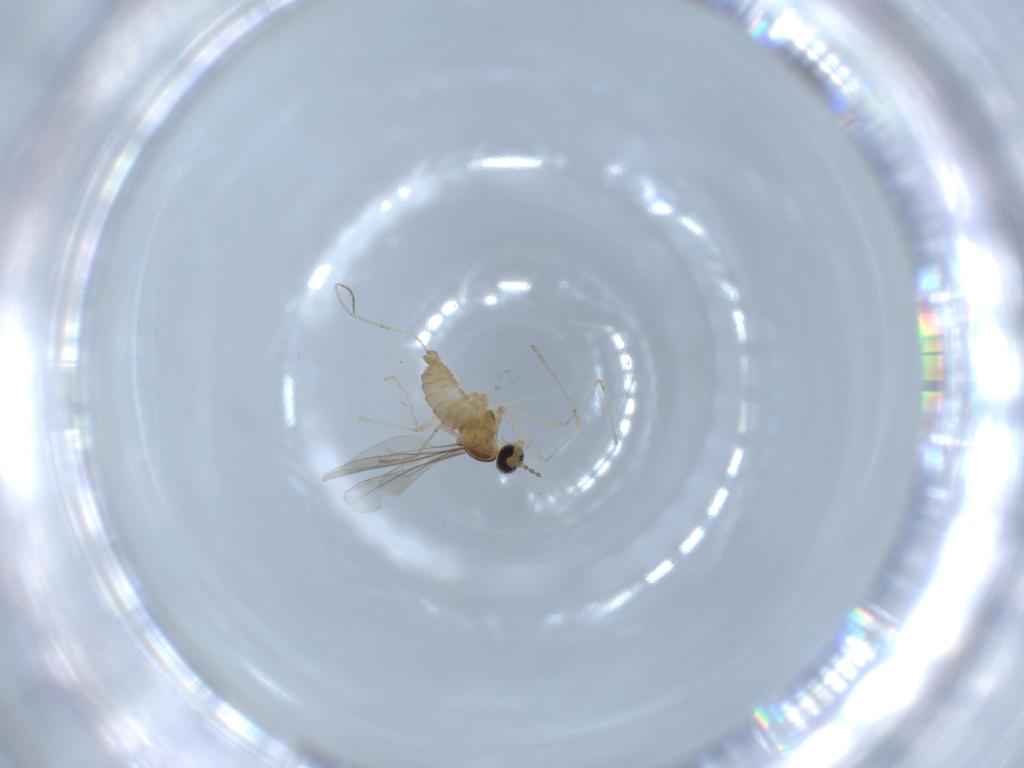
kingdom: Animalia
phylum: Arthropoda
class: Insecta
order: Diptera
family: Cecidomyiidae
